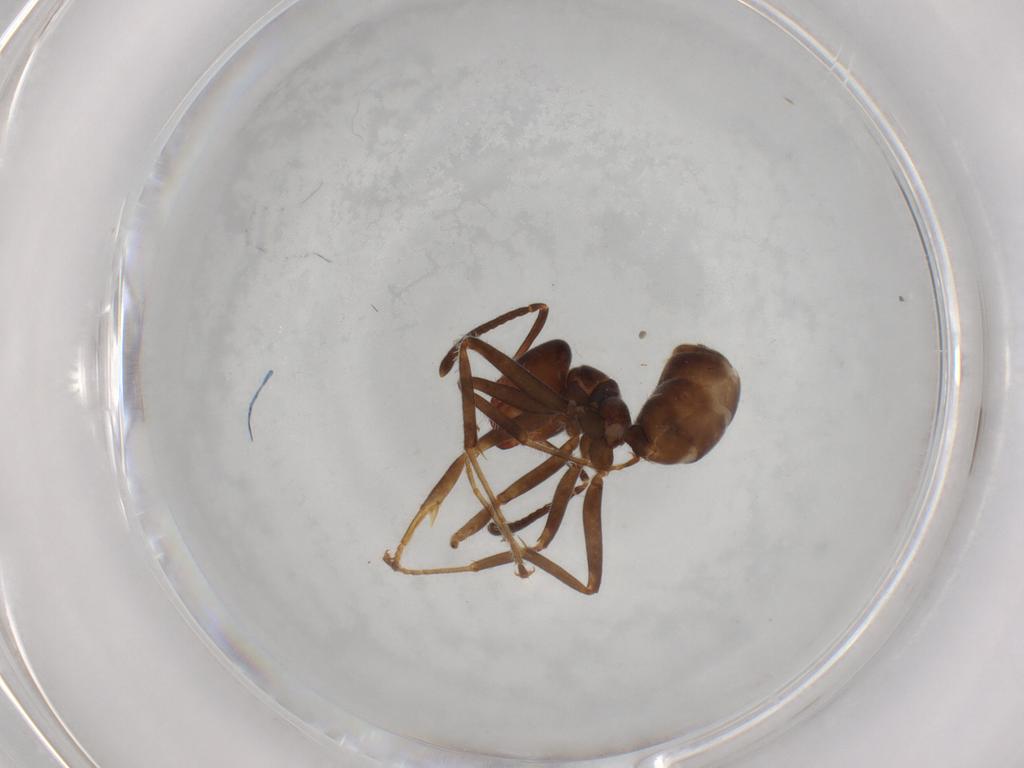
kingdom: Animalia
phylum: Arthropoda
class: Insecta
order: Hymenoptera
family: Formicidae
